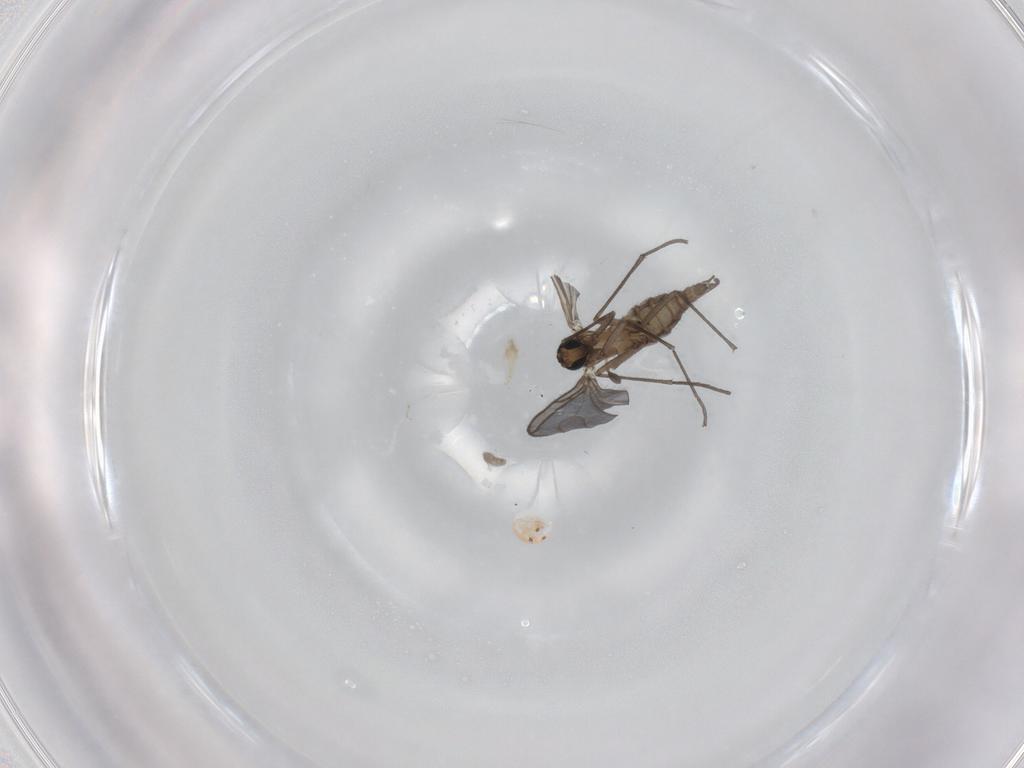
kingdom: Animalia
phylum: Arthropoda
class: Insecta
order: Diptera
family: Sciaridae
